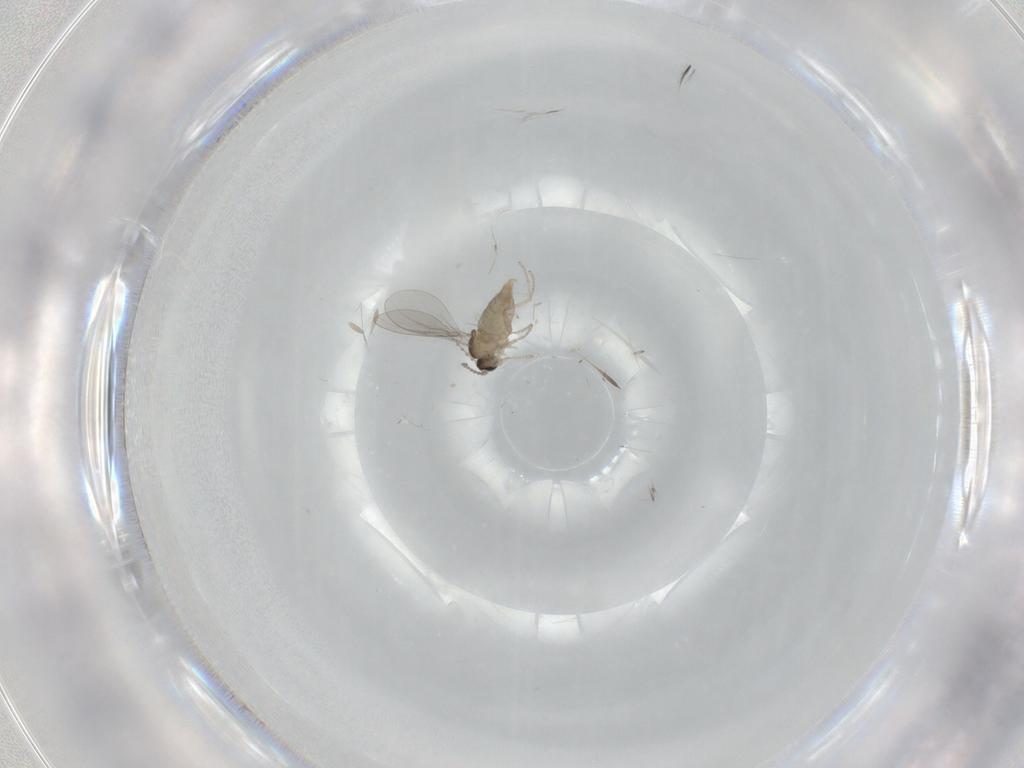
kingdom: Animalia
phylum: Arthropoda
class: Insecta
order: Diptera
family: Cecidomyiidae
